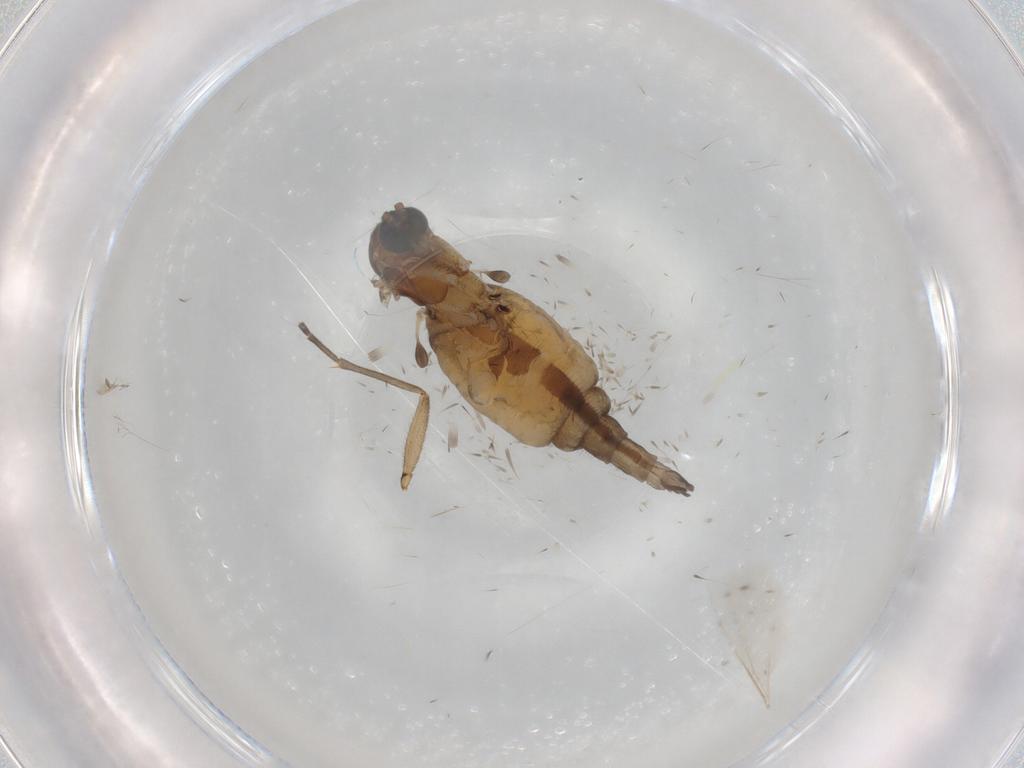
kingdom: Animalia
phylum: Arthropoda
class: Insecta
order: Diptera
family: Sciaridae
